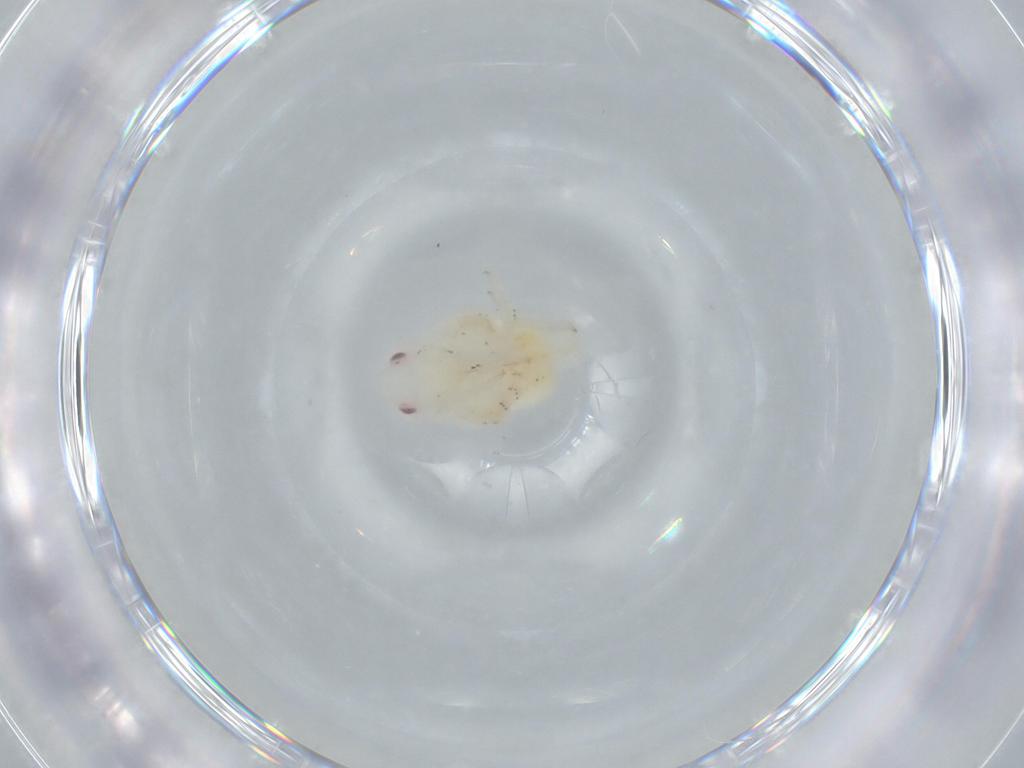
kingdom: Animalia
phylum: Arthropoda
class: Insecta
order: Hemiptera
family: Flatidae
